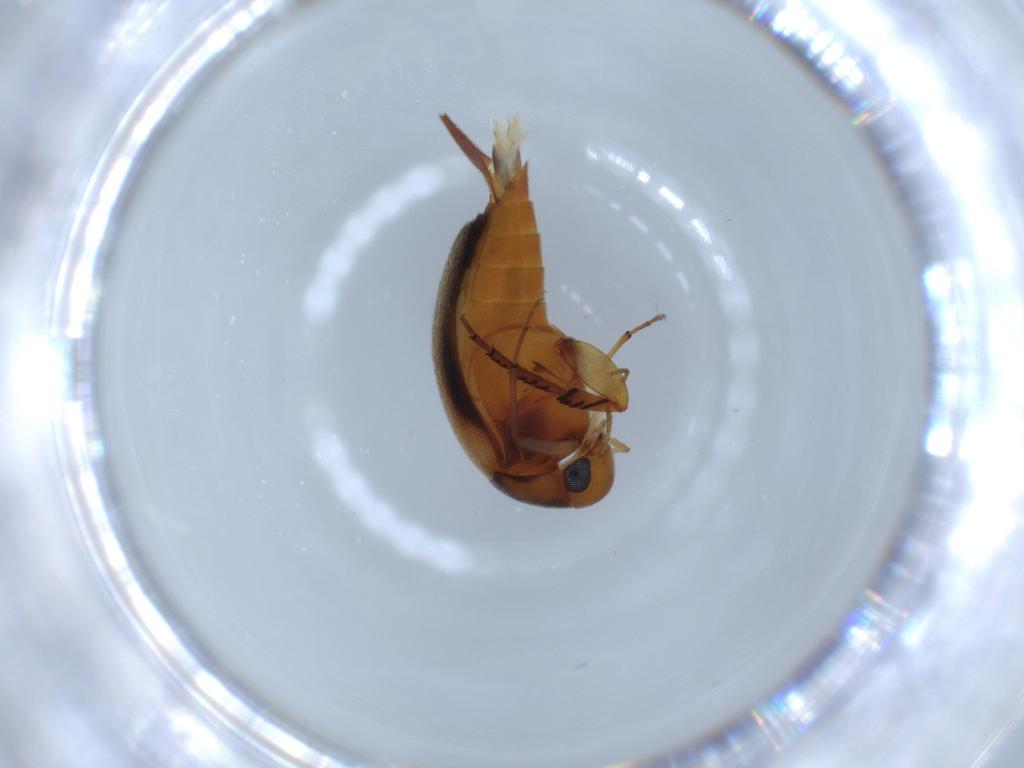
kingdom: Animalia
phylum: Arthropoda
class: Insecta
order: Coleoptera
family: Mordellidae
